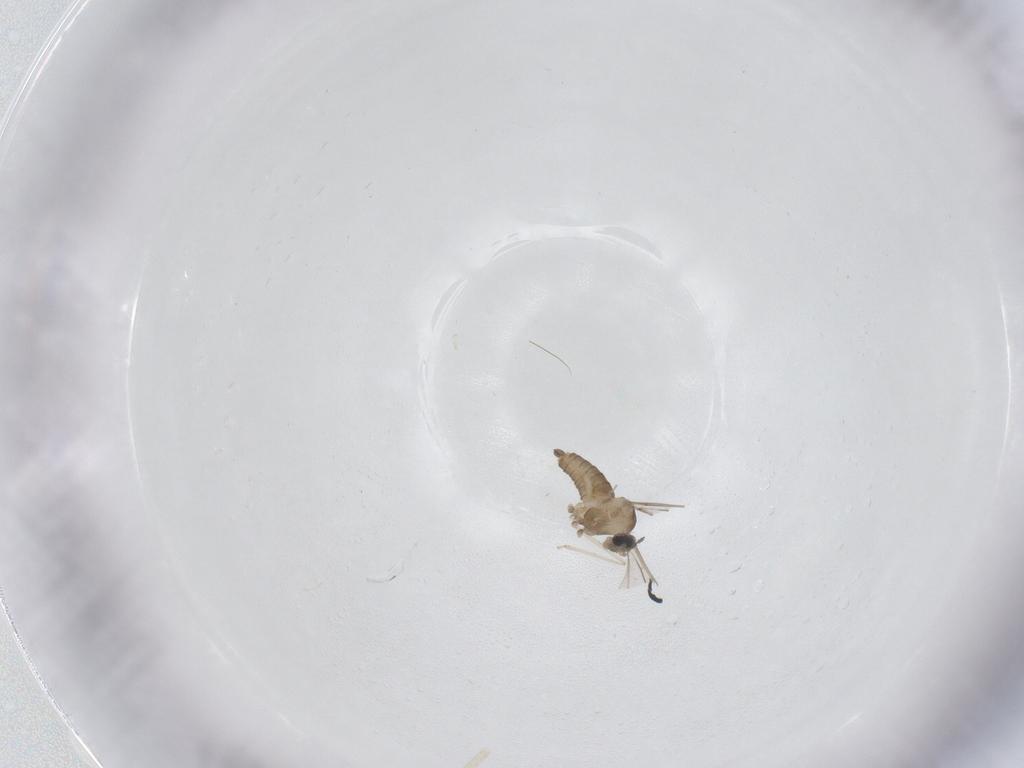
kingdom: Animalia
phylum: Arthropoda
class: Insecta
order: Diptera
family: Cecidomyiidae
